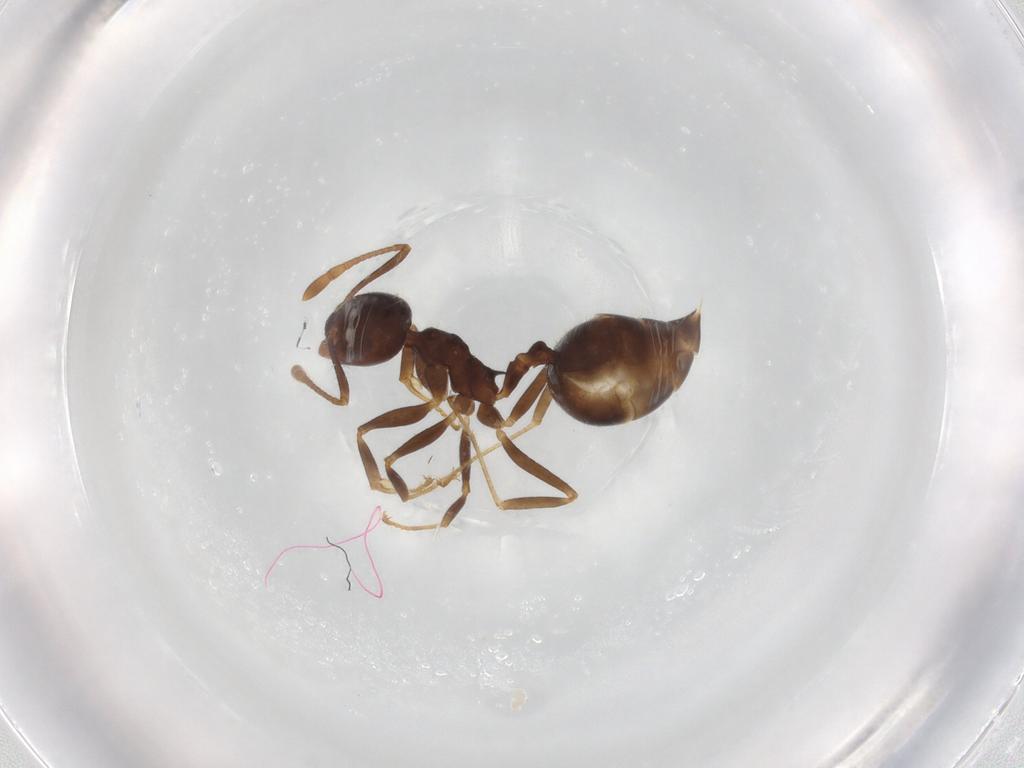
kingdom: Animalia
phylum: Arthropoda
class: Insecta
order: Hymenoptera
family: Formicidae
